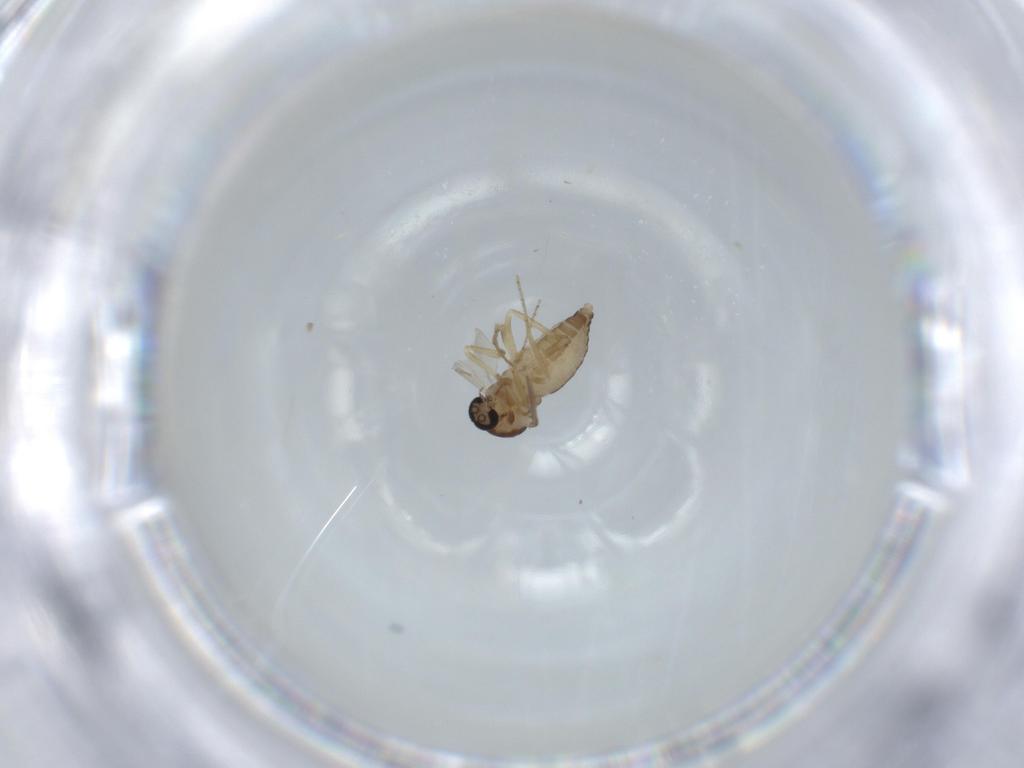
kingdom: Animalia
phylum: Arthropoda
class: Insecta
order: Diptera
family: Ceratopogonidae
